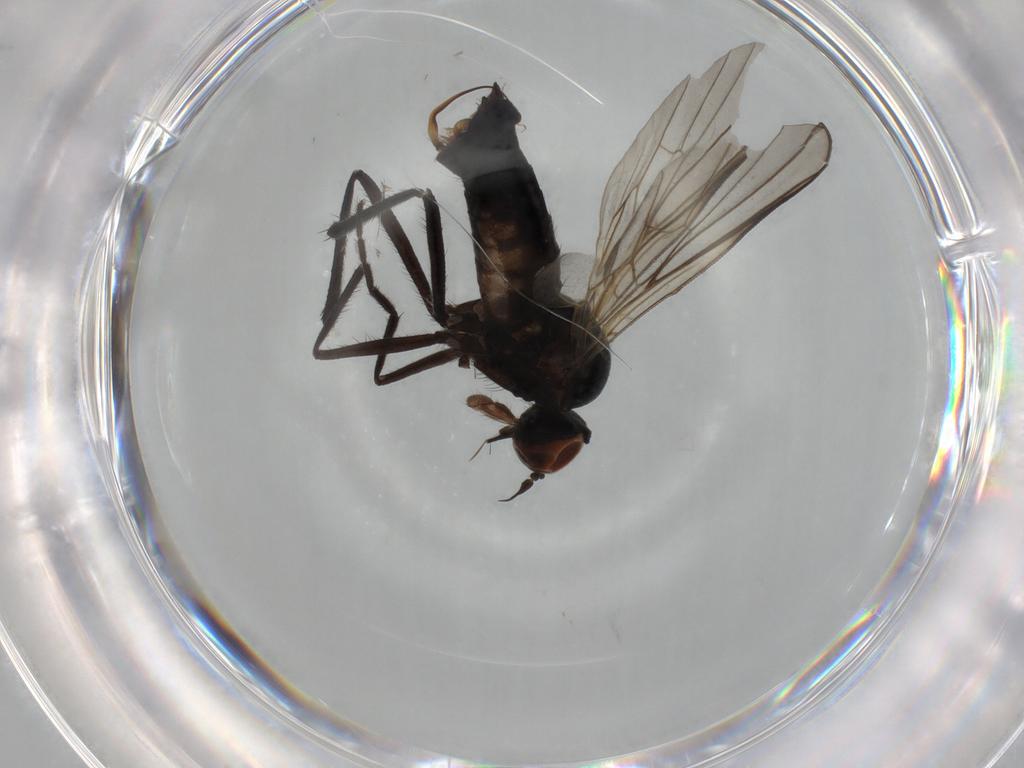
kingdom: Animalia
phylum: Arthropoda
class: Insecta
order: Diptera
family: Empididae
